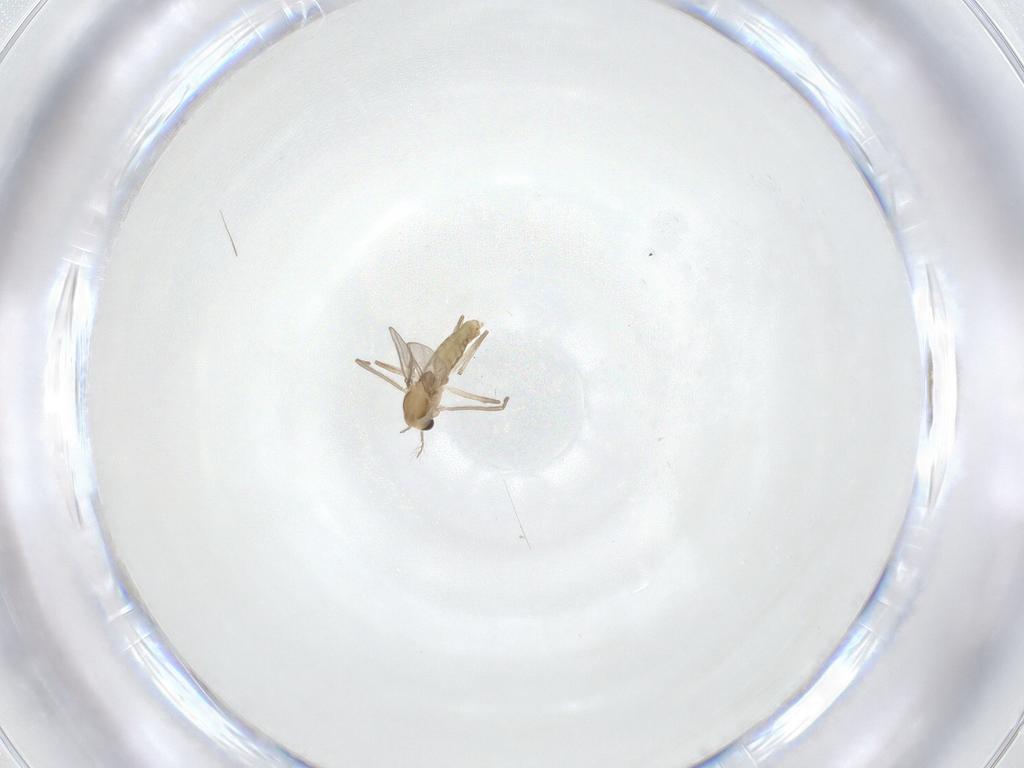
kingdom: Animalia
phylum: Arthropoda
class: Insecta
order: Diptera
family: Chironomidae
